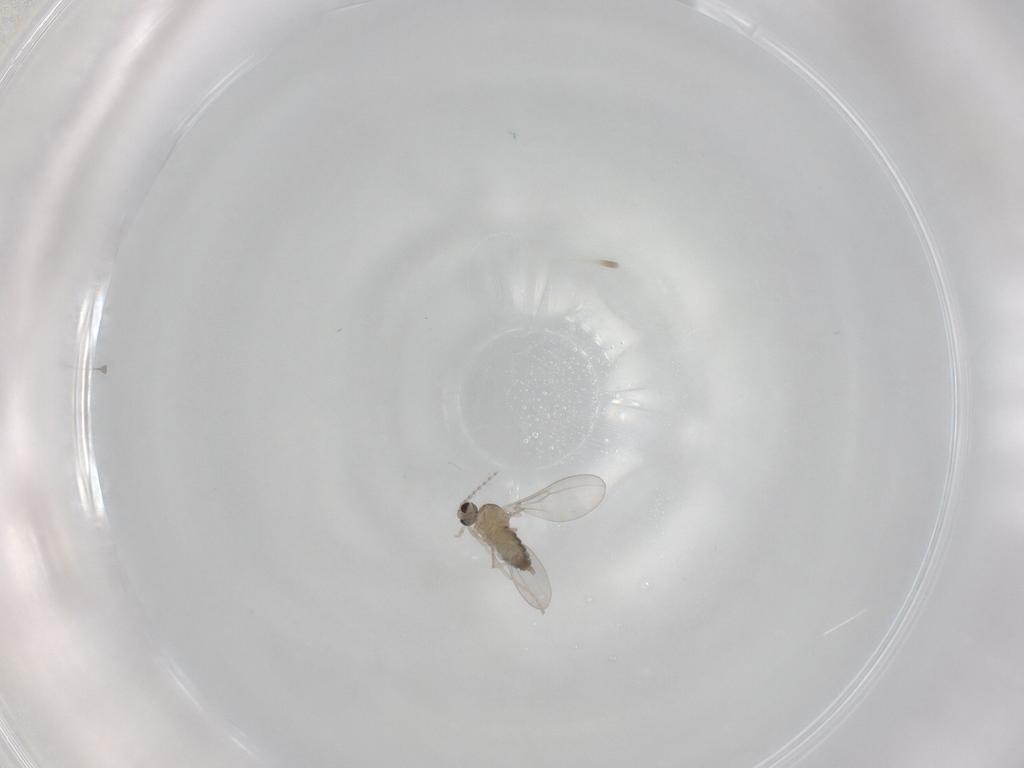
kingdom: Animalia
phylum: Arthropoda
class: Insecta
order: Diptera
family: Cecidomyiidae
